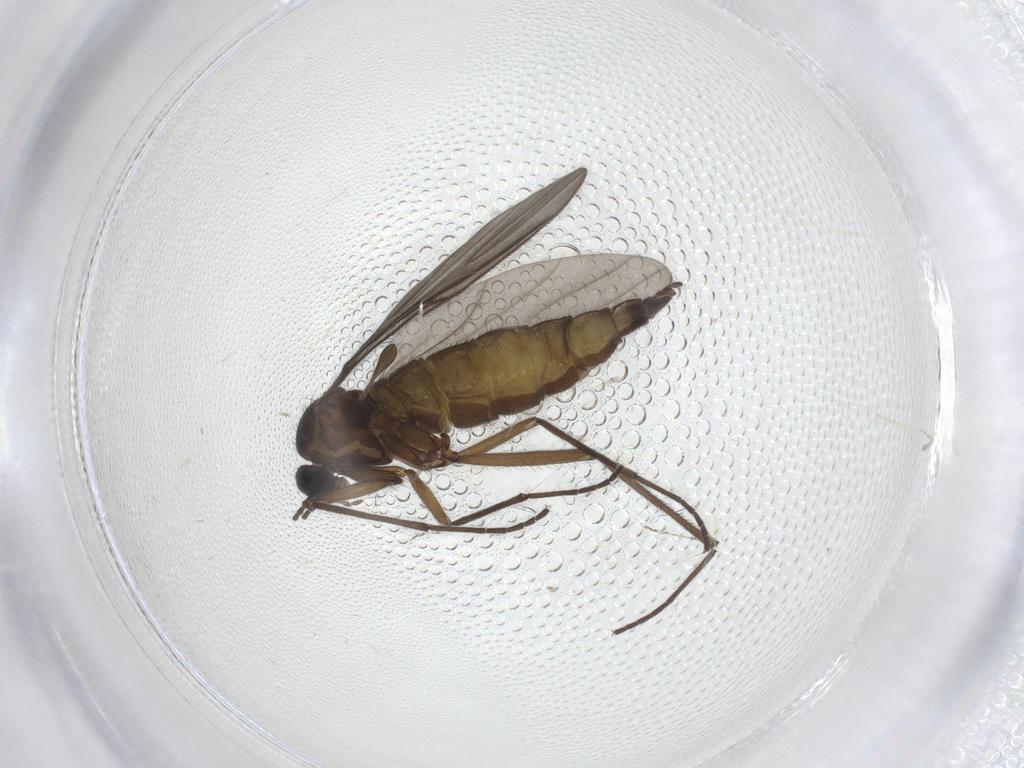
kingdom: Animalia
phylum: Arthropoda
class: Insecta
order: Diptera
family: Sciaridae
